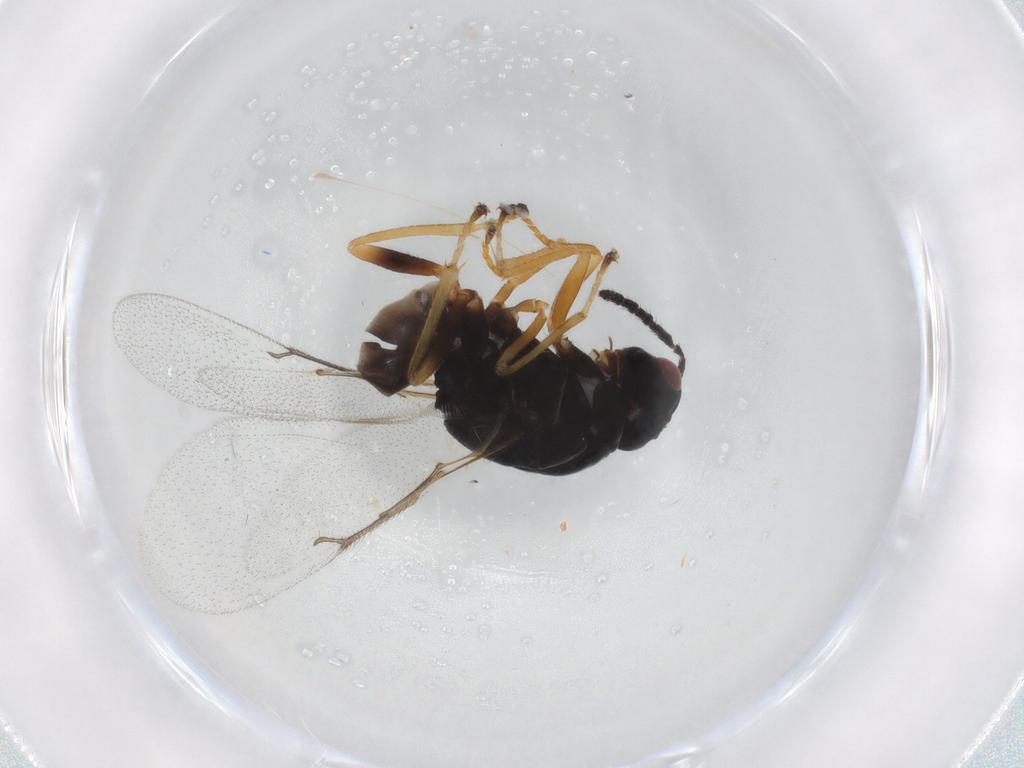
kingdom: Animalia
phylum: Arthropoda
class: Insecta
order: Hymenoptera
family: Eulophidae
